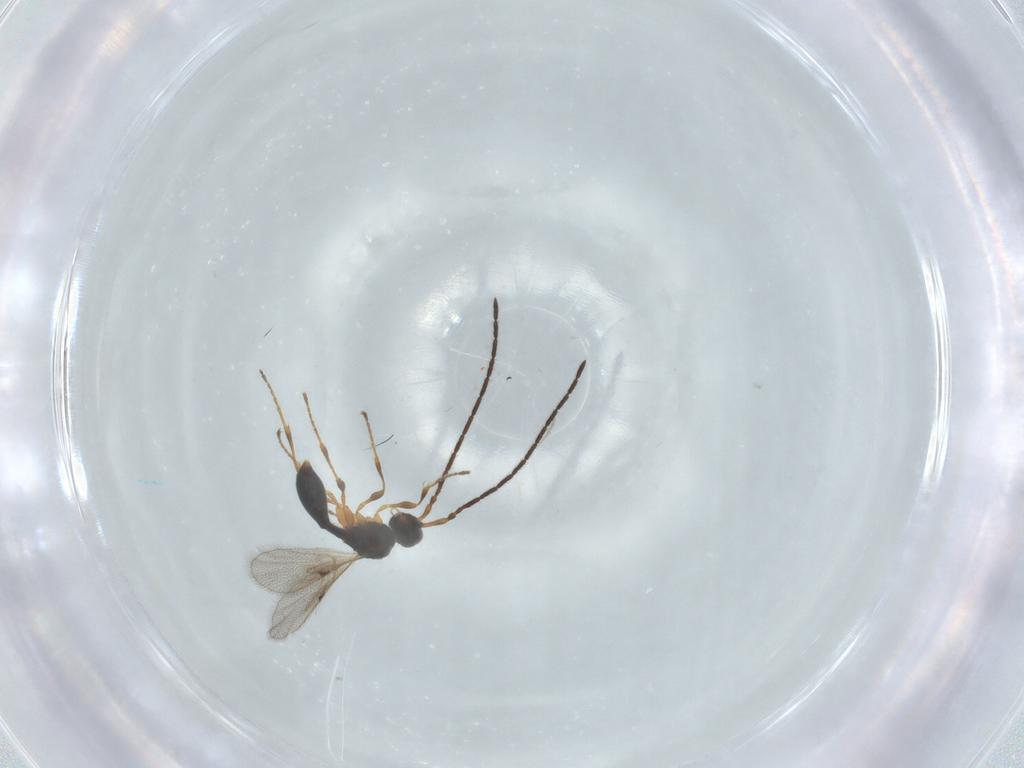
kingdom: Animalia
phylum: Arthropoda
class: Insecta
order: Hymenoptera
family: Diapriidae
